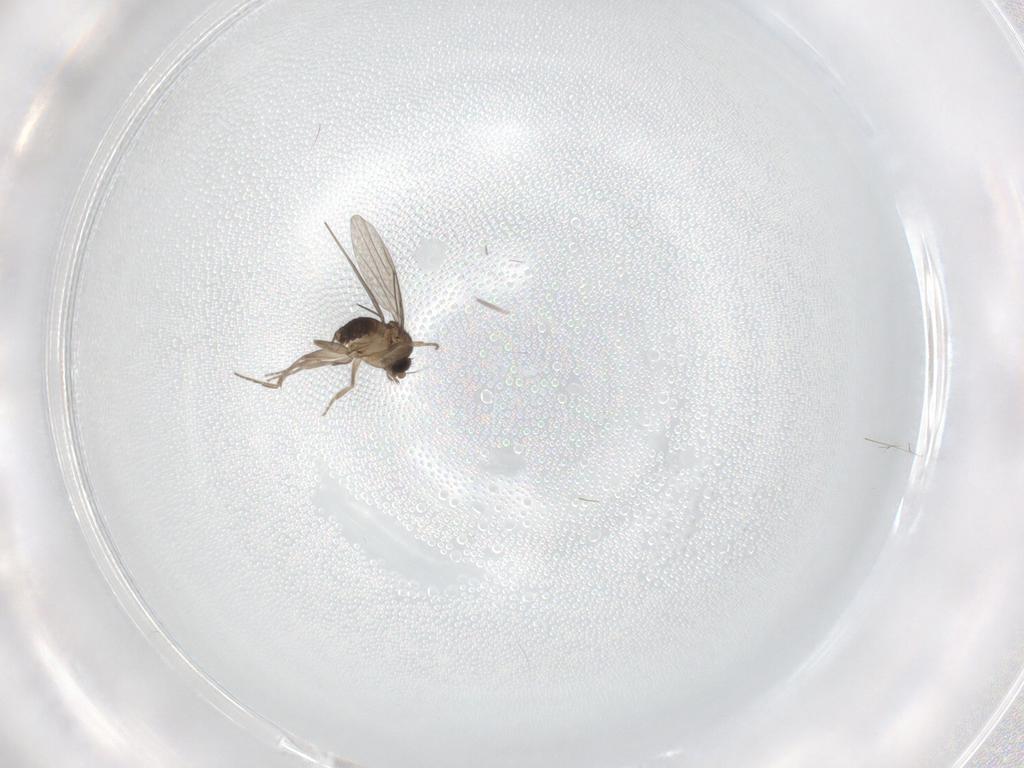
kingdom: Animalia
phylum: Arthropoda
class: Insecta
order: Diptera
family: Phoridae
